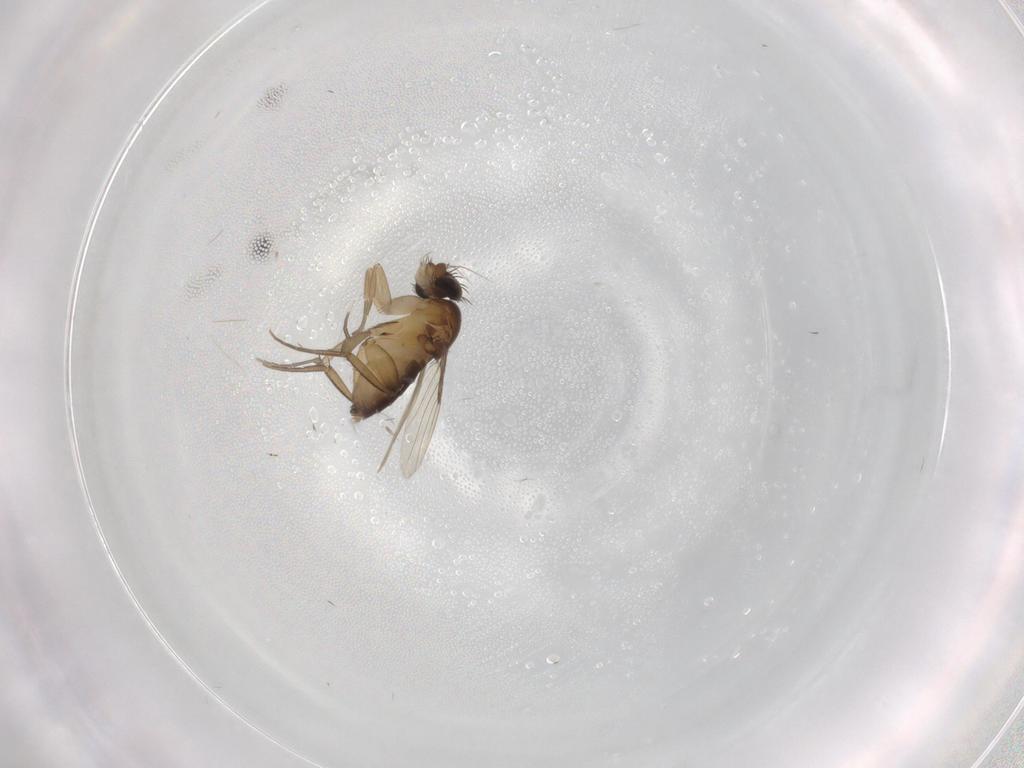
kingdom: Animalia
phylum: Arthropoda
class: Insecta
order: Diptera
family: Phoridae
